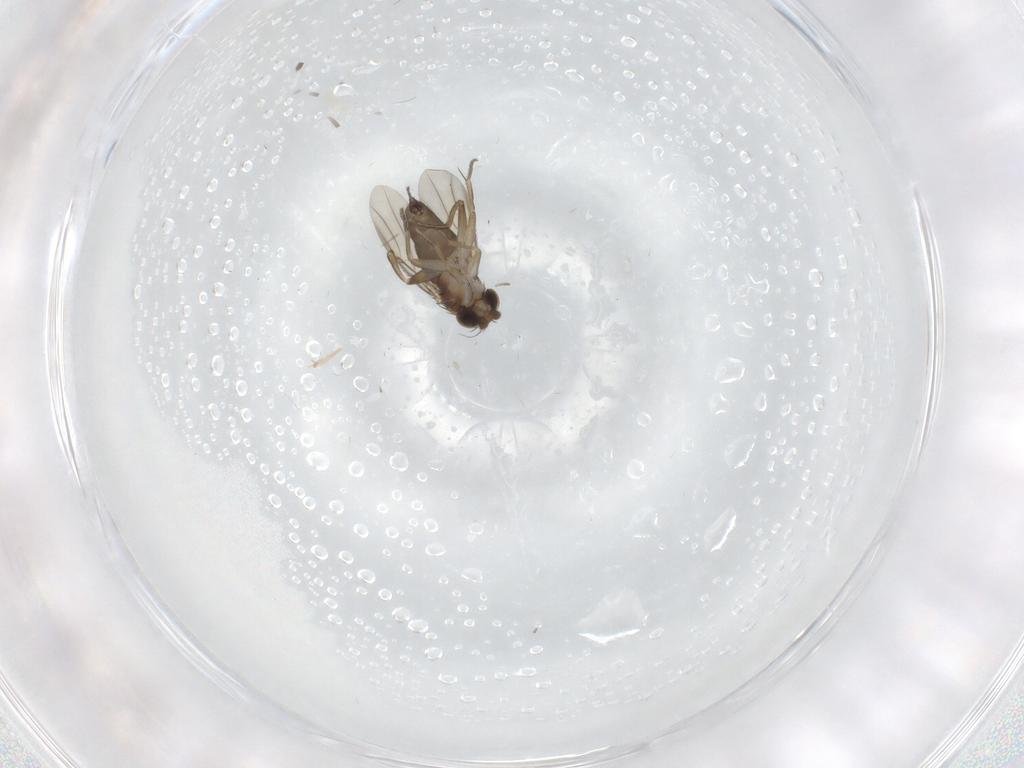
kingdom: Animalia
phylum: Arthropoda
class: Insecta
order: Diptera
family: Phoridae
